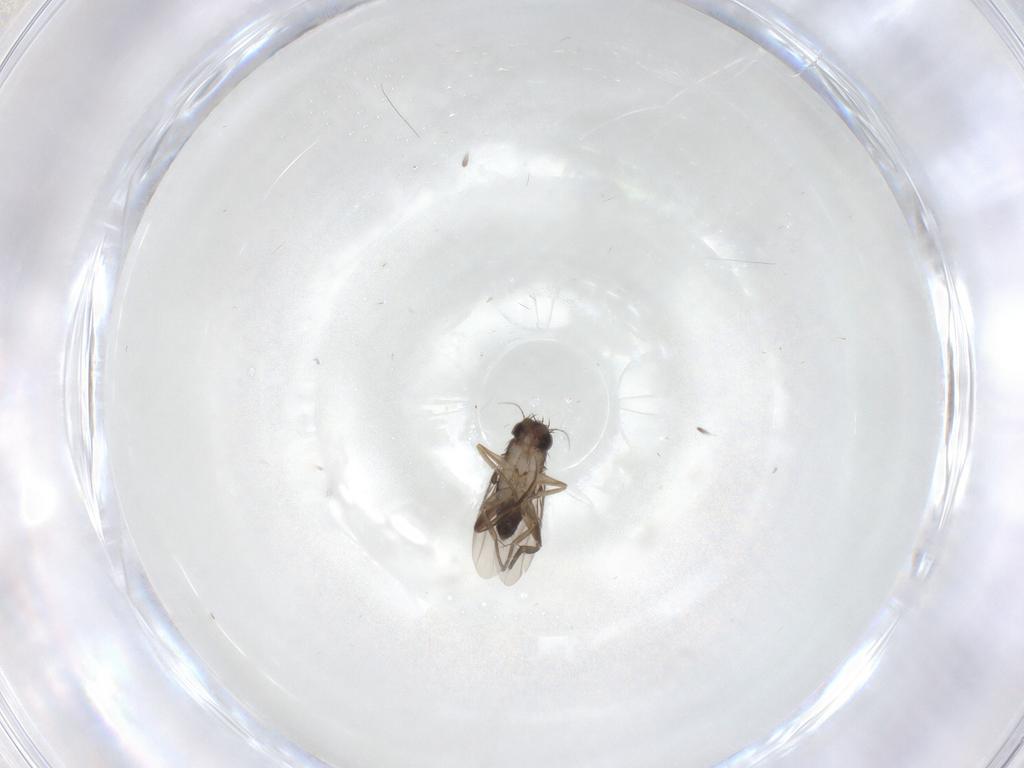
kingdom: Animalia
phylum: Arthropoda
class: Insecta
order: Diptera
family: Phoridae
